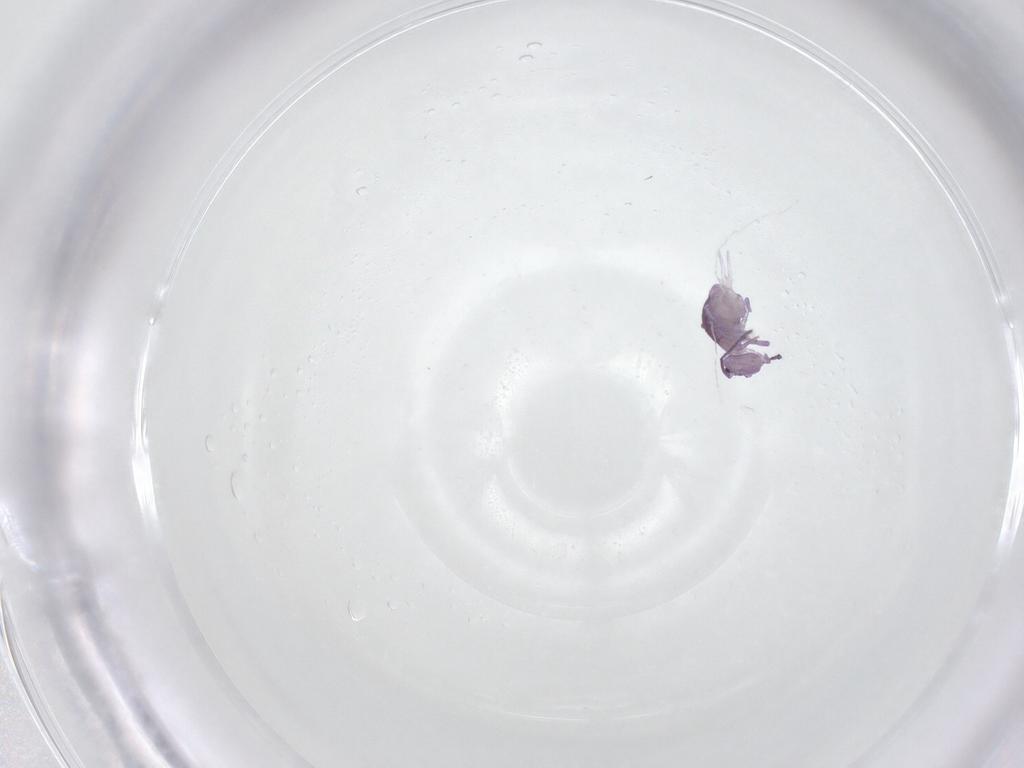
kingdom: Animalia
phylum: Arthropoda
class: Collembola
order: Symphypleona
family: Dicyrtomidae
